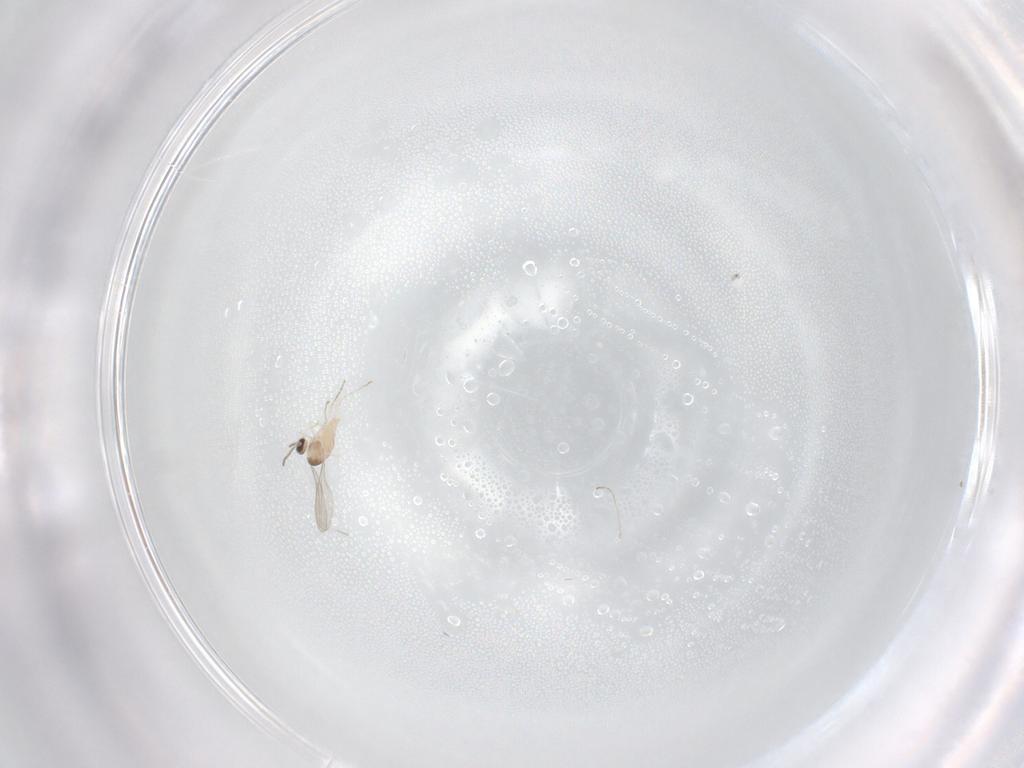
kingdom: Animalia
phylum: Arthropoda
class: Insecta
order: Diptera
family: Cecidomyiidae
